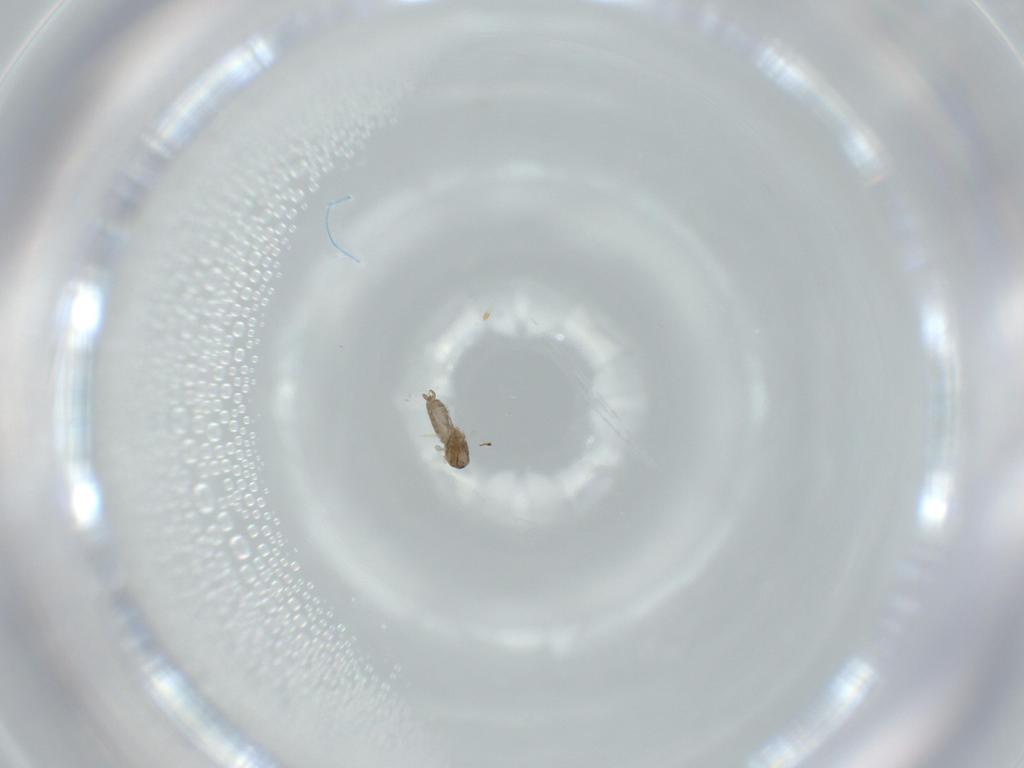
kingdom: Animalia
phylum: Arthropoda
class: Insecta
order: Diptera
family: Cecidomyiidae
